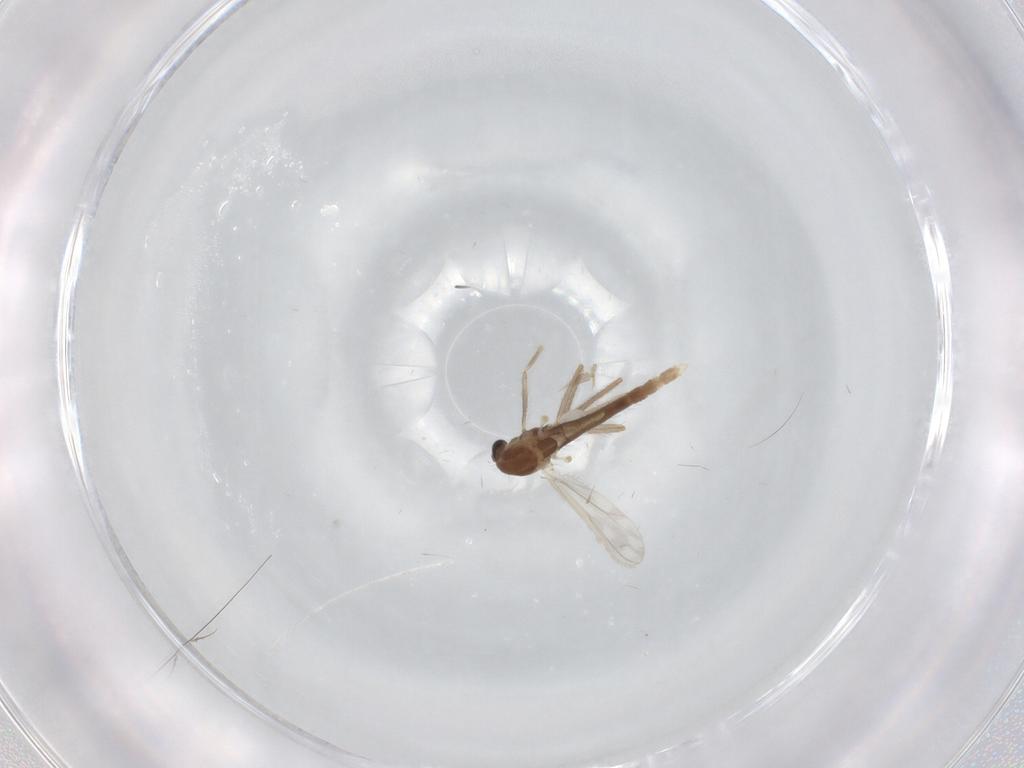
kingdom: Animalia
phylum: Arthropoda
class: Insecta
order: Diptera
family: Chironomidae
